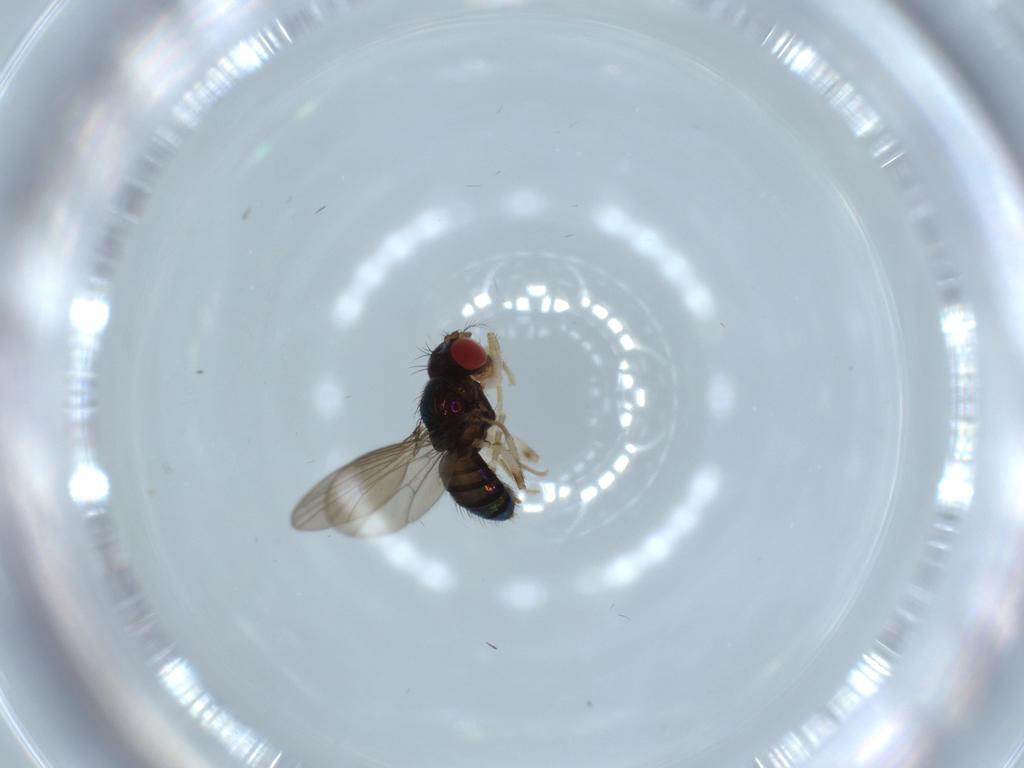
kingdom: Animalia
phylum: Arthropoda
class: Insecta
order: Diptera
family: Drosophilidae
